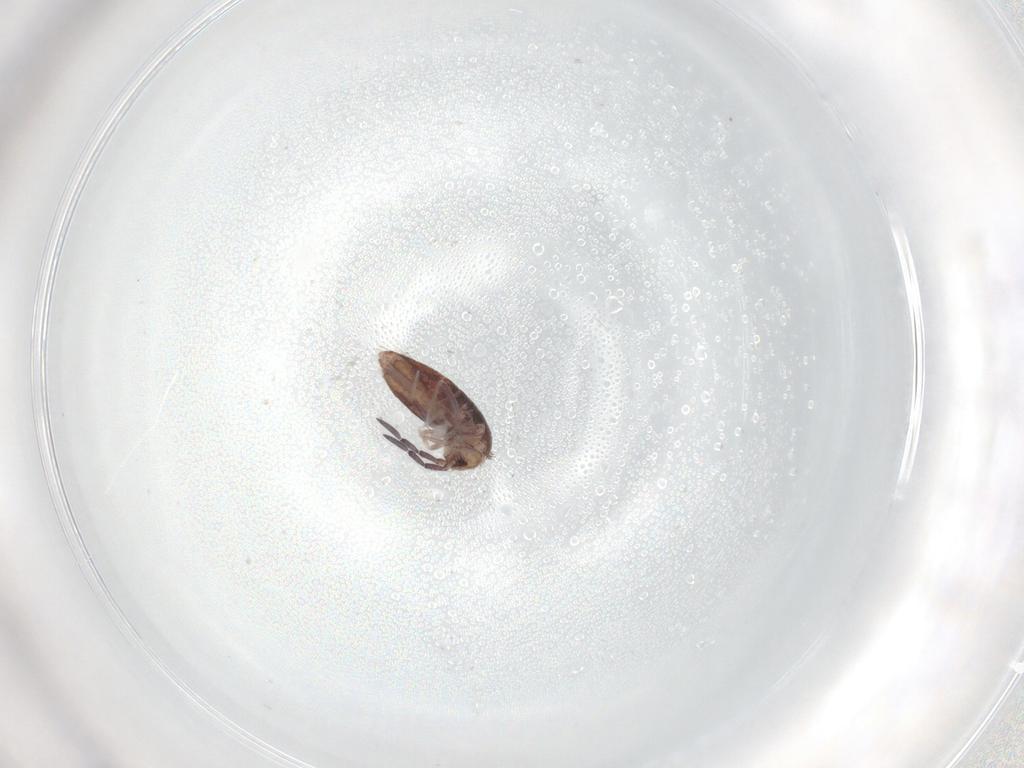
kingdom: Animalia
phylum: Arthropoda
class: Collembola
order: Entomobryomorpha
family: Entomobryidae
